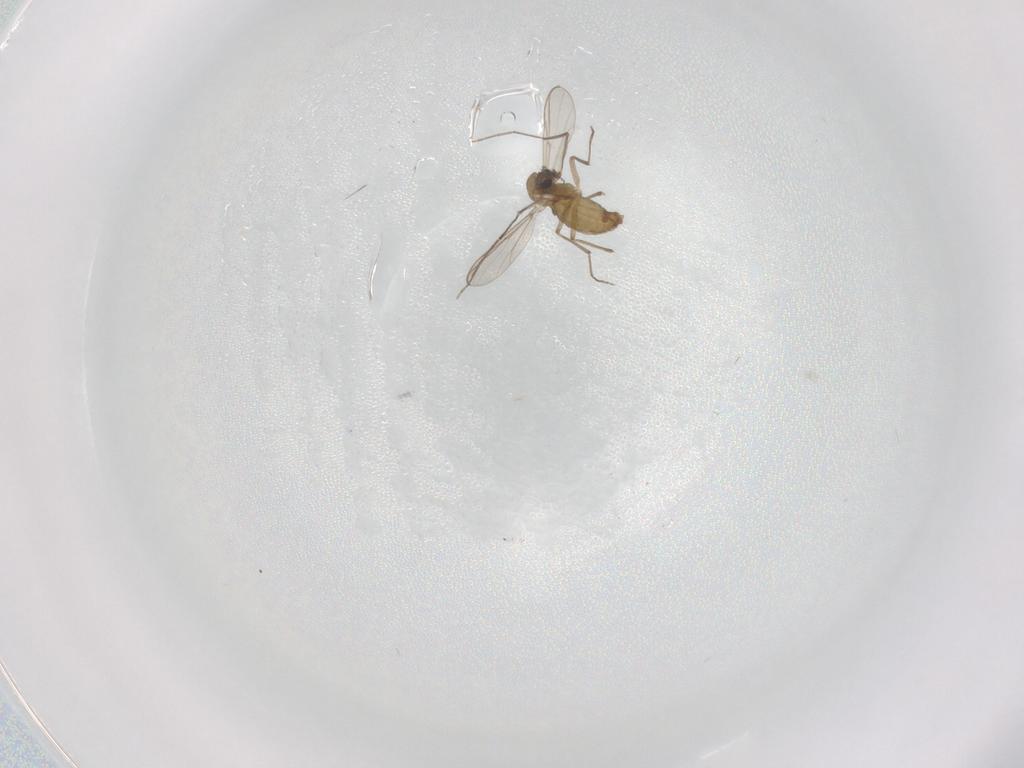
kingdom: Animalia
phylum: Arthropoda
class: Insecta
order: Diptera
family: Chironomidae
